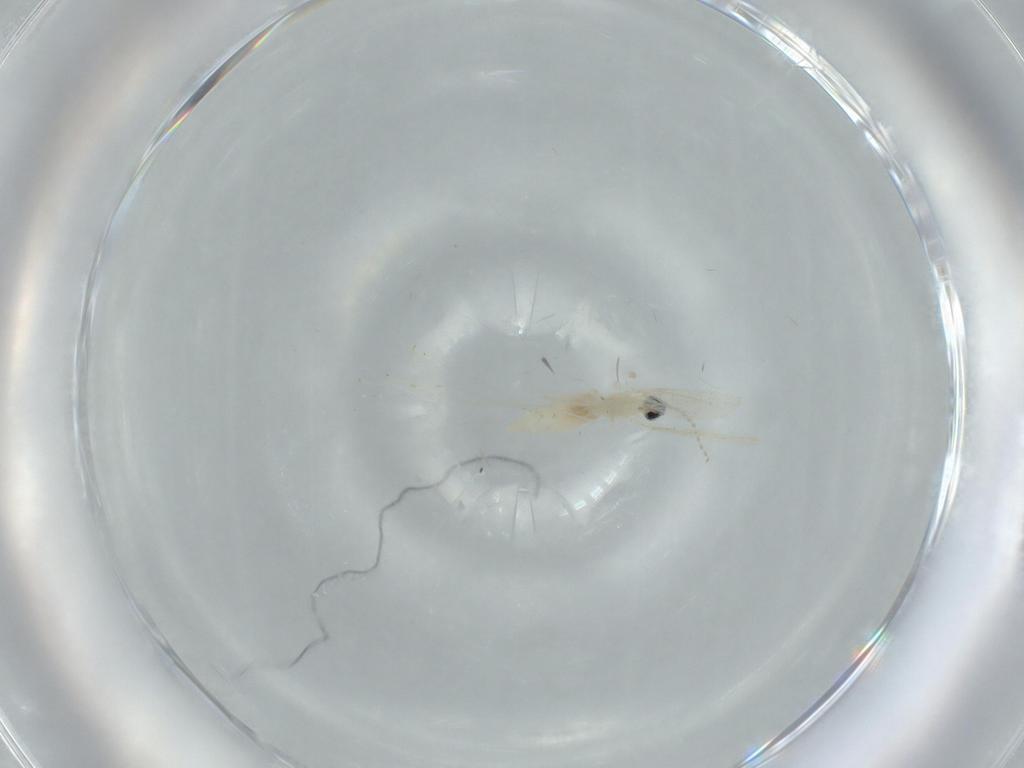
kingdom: Animalia
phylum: Arthropoda
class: Insecta
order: Diptera
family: Cecidomyiidae
